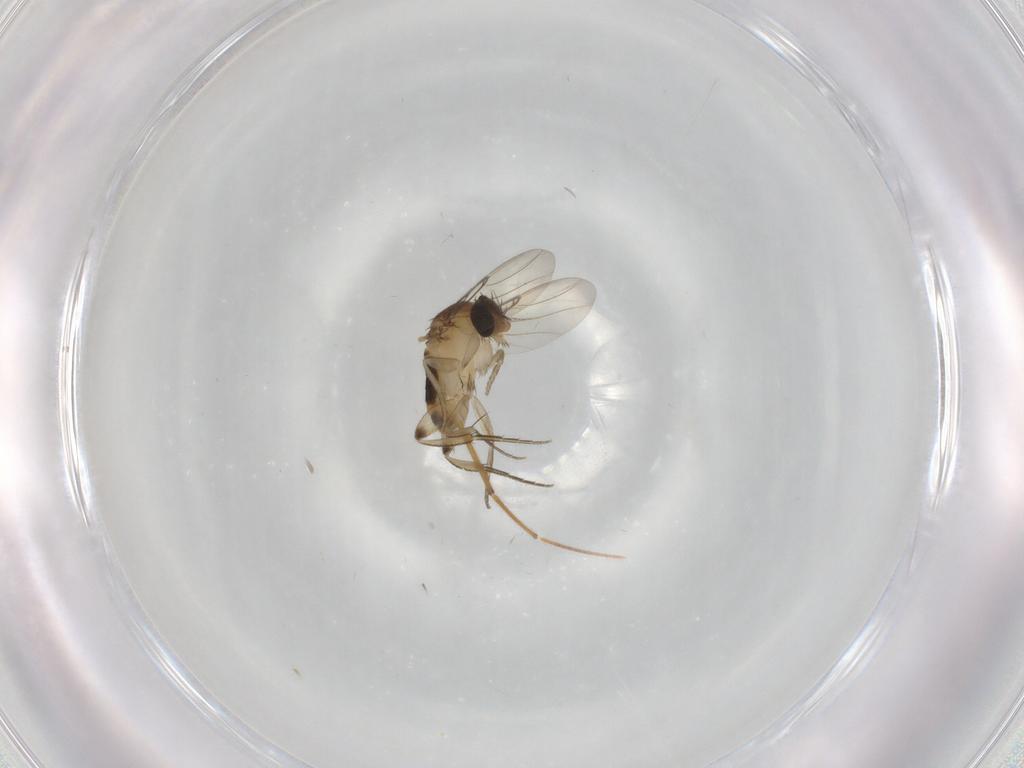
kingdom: Animalia
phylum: Arthropoda
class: Insecta
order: Diptera
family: Phoridae
